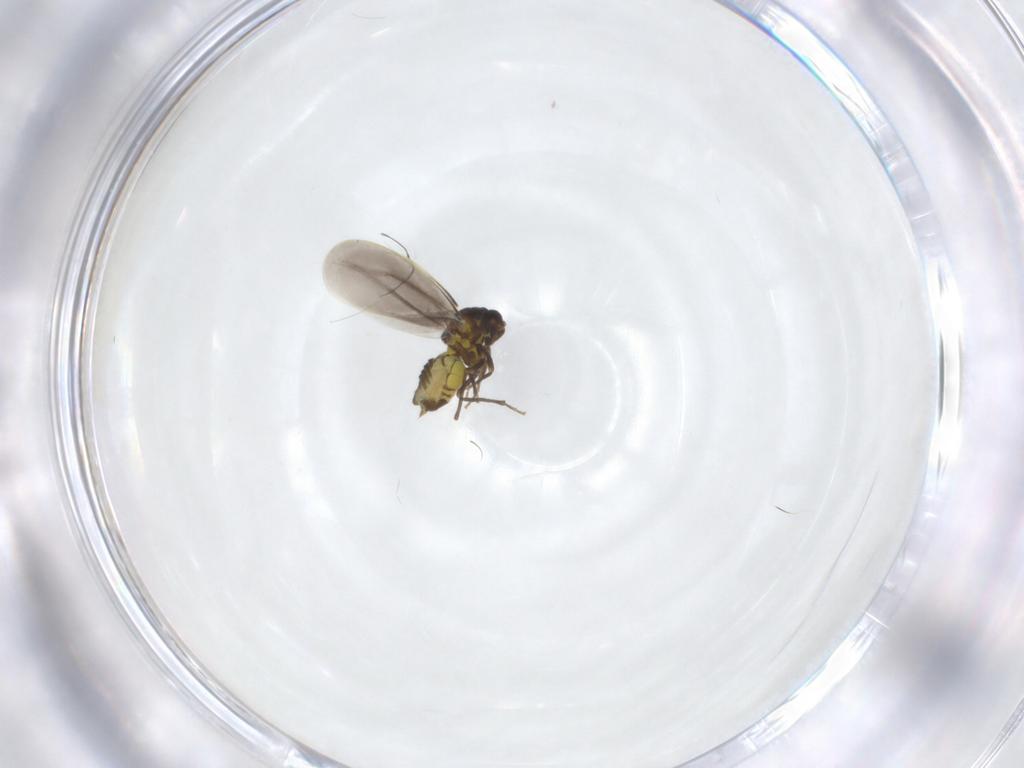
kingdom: Animalia
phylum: Arthropoda
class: Insecta
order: Hemiptera
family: Aleyrodidae
